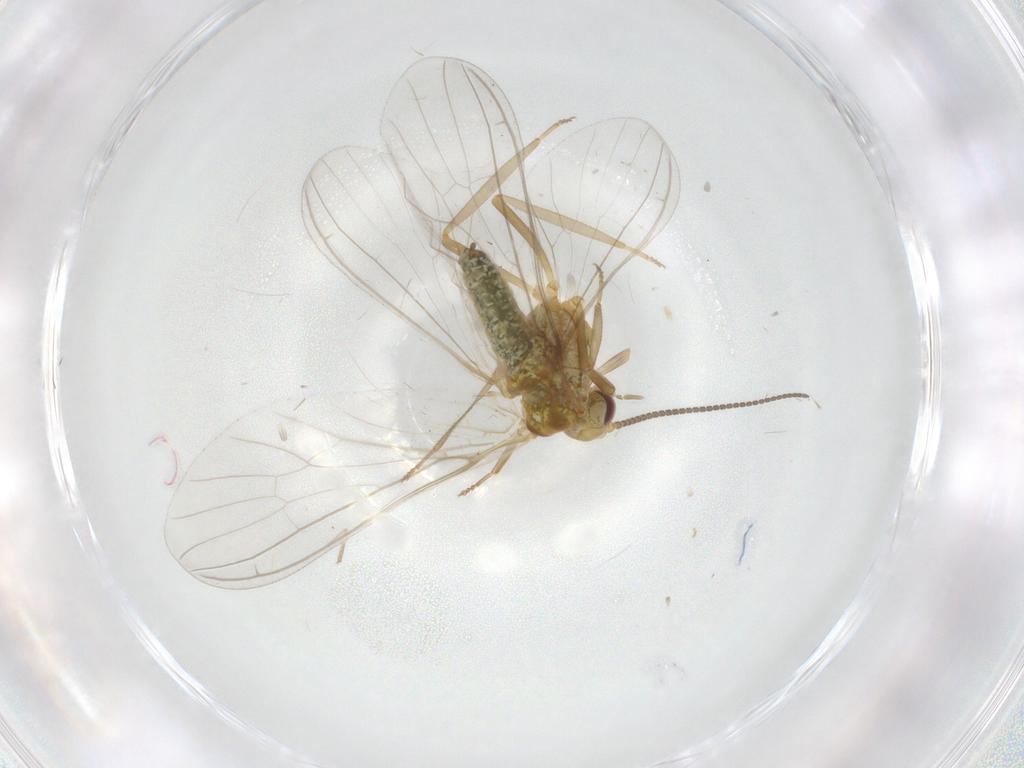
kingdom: Animalia
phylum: Arthropoda
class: Insecta
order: Neuroptera
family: Coniopterygidae
